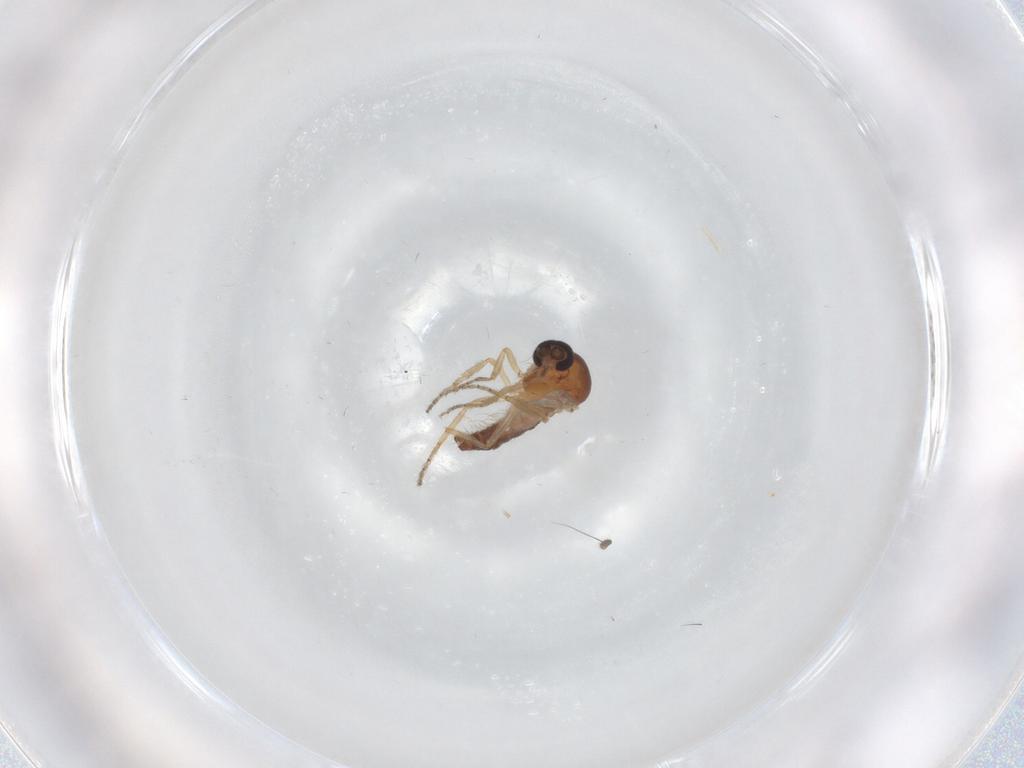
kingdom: Animalia
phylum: Arthropoda
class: Insecta
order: Diptera
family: Ceratopogonidae
